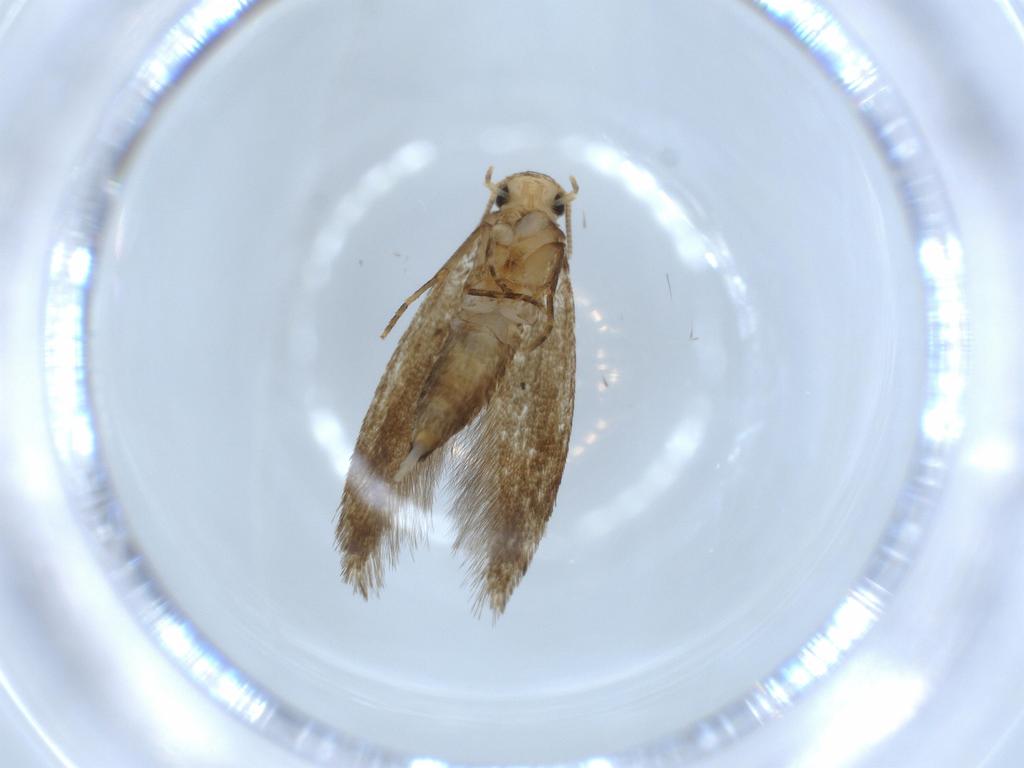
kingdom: Animalia
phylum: Arthropoda
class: Insecta
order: Lepidoptera
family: Tineidae
